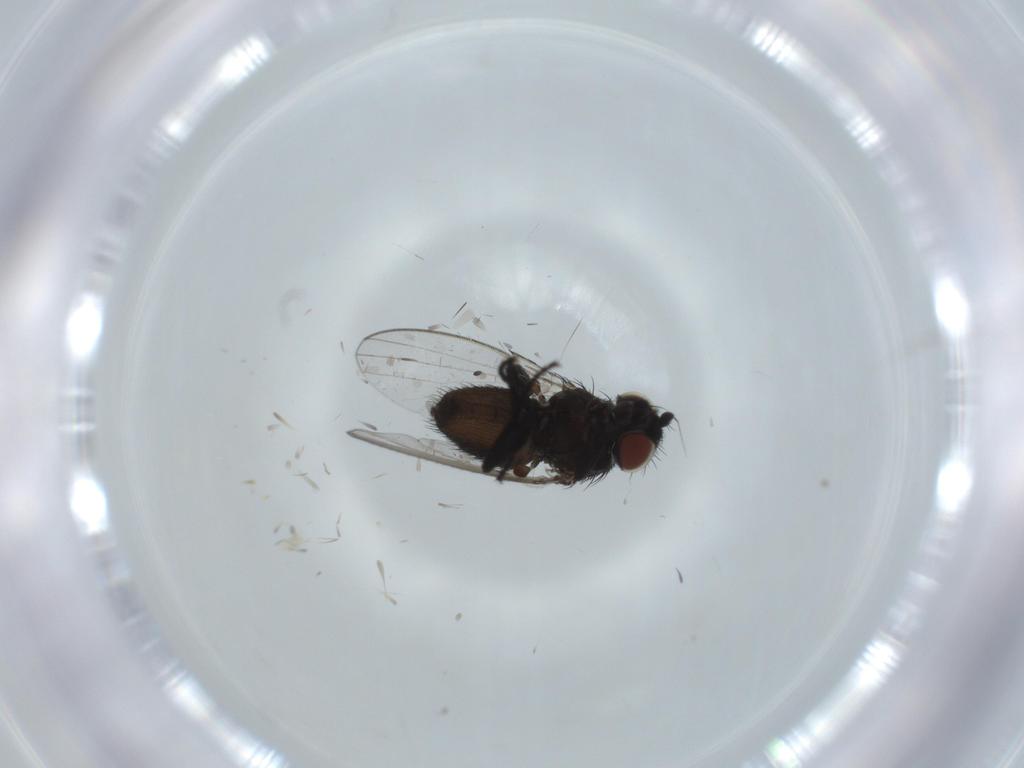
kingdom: Animalia
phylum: Arthropoda
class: Insecta
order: Diptera
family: Milichiidae
